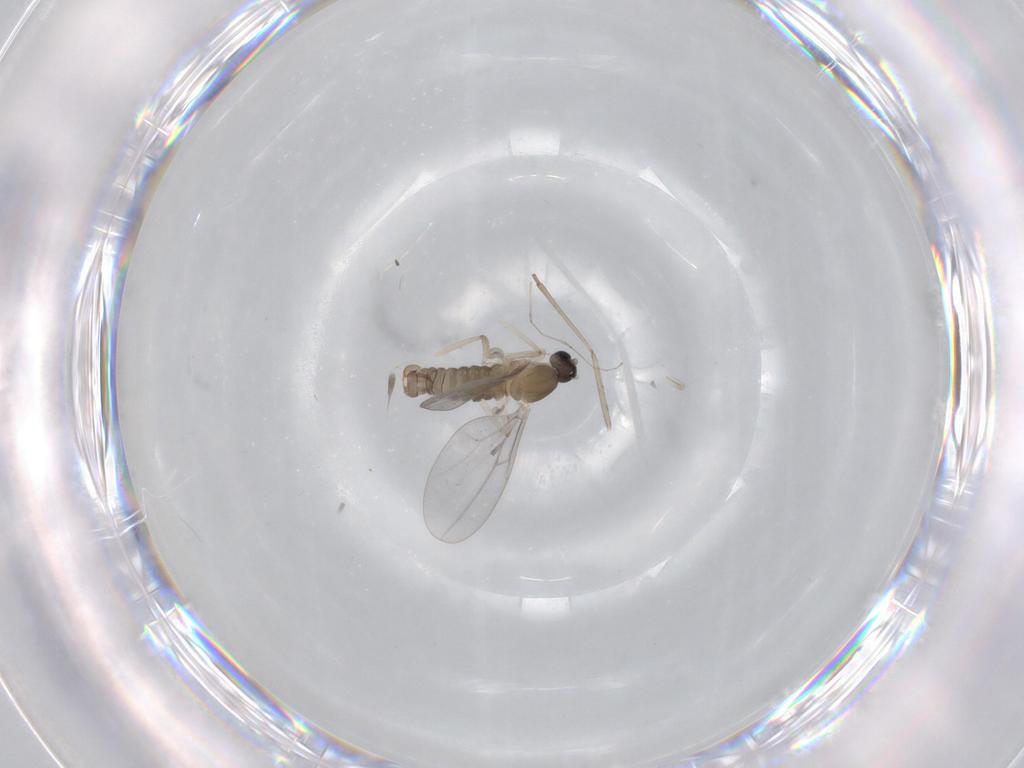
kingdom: Animalia
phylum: Arthropoda
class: Insecta
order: Diptera
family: Cecidomyiidae
